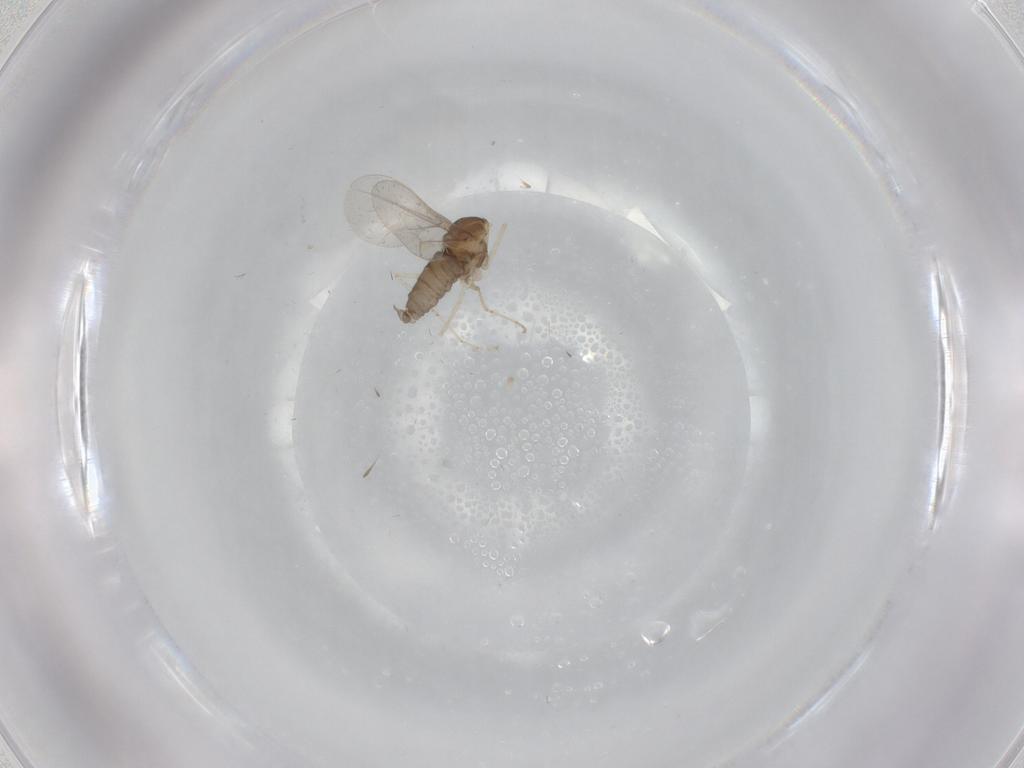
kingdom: Animalia
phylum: Arthropoda
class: Insecta
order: Diptera
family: Cecidomyiidae
